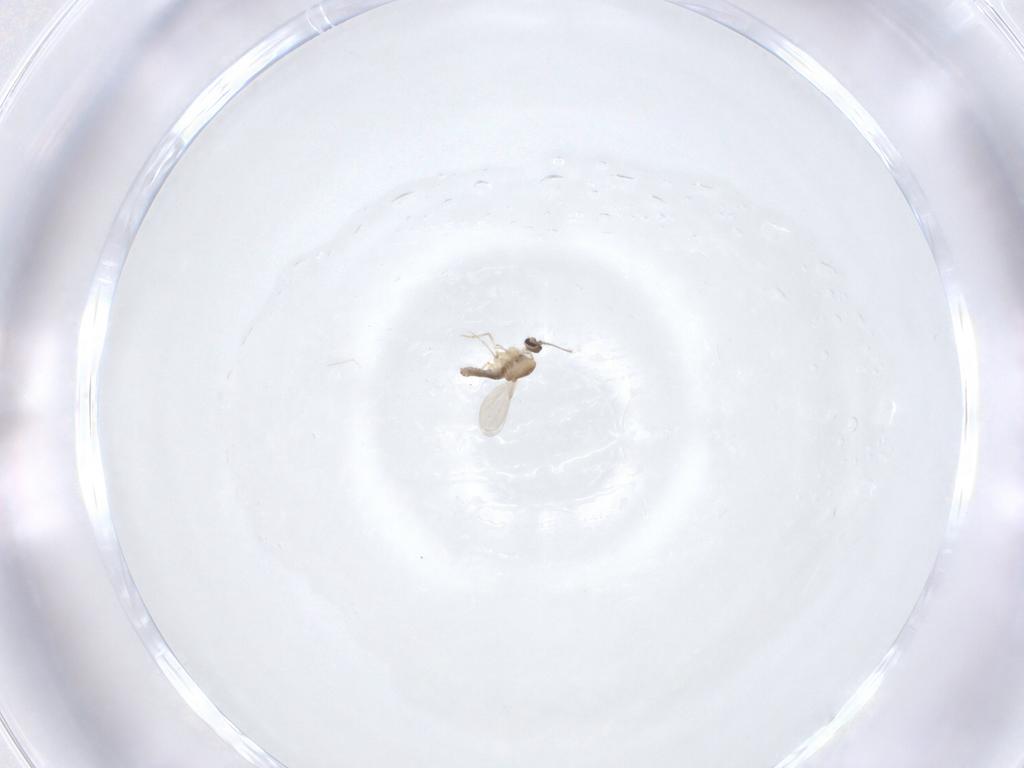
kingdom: Animalia
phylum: Arthropoda
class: Insecta
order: Diptera
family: Ceratopogonidae
